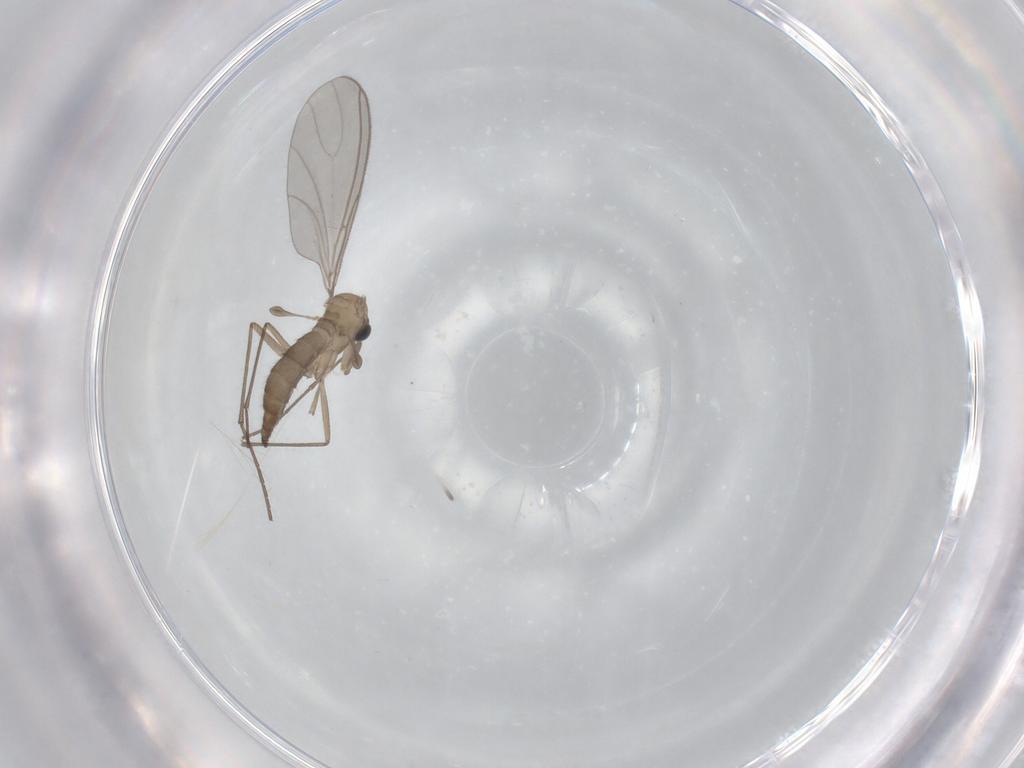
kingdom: Animalia
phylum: Arthropoda
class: Insecta
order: Diptera
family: Sciaridae
